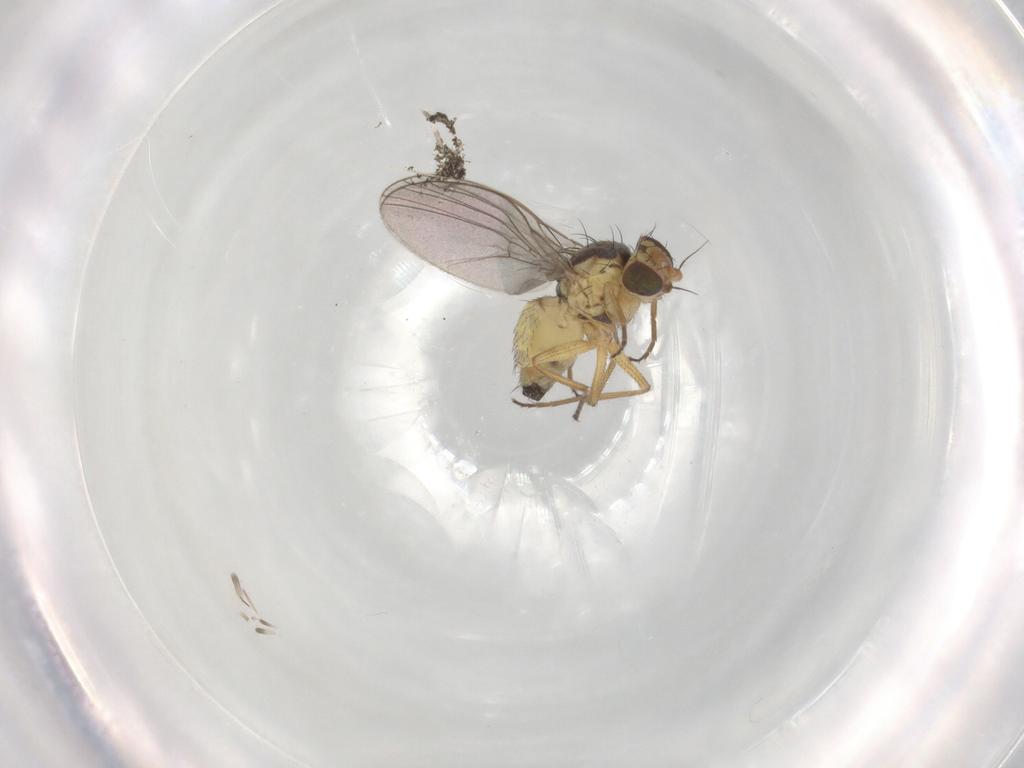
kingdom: Animalia
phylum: Arthropoda
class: Insecta
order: Diptera
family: Agromyzidae
